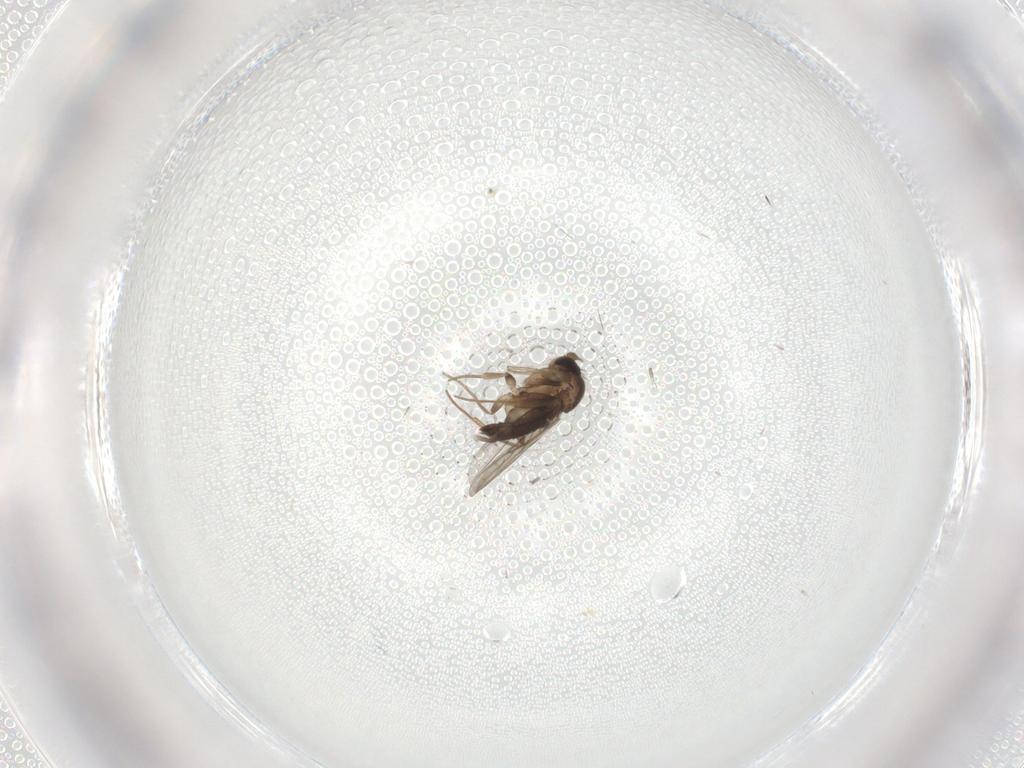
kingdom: Animalia
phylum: Arthropoda
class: Insecta
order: Diptera
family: Phoridae
